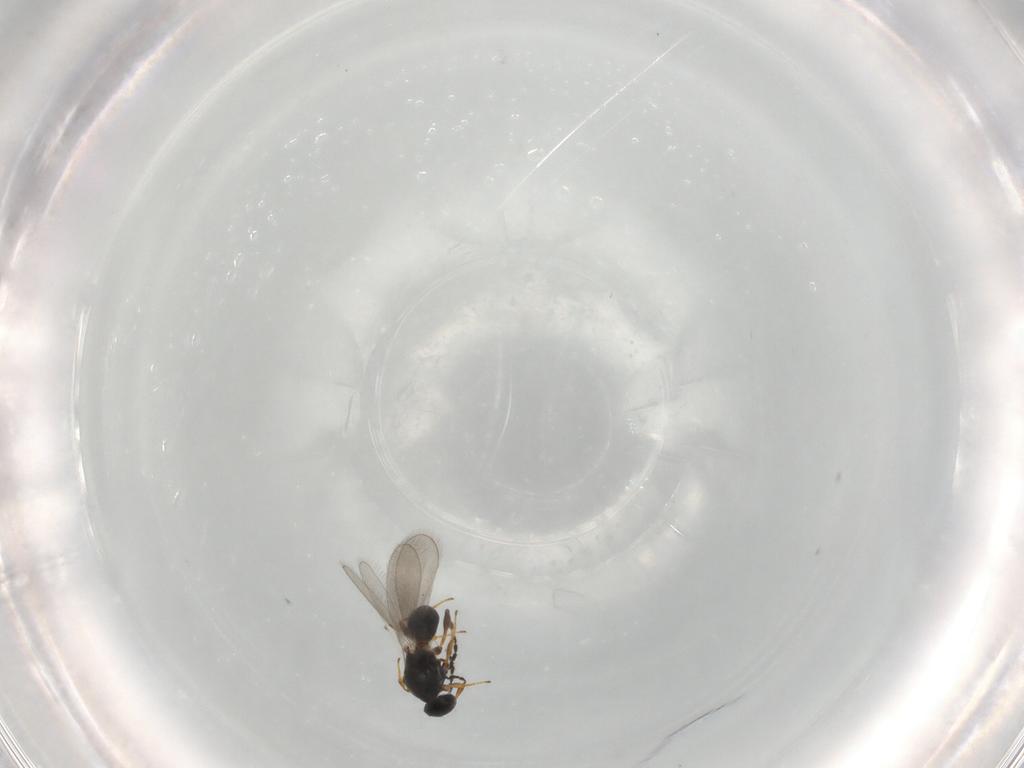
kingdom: Animalia
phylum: Arthropoda
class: Insecta
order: Hymenoptera
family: Platygastridae
